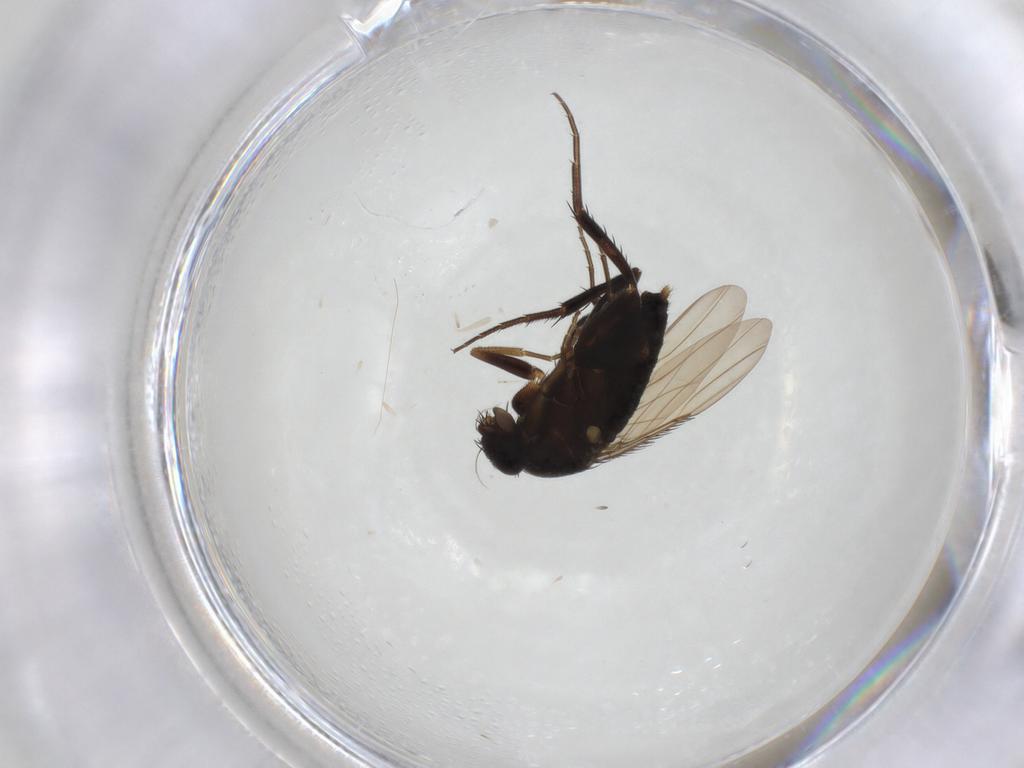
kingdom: Animalia
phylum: Arthropoda
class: Insecta
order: Diptera
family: Phoridae
